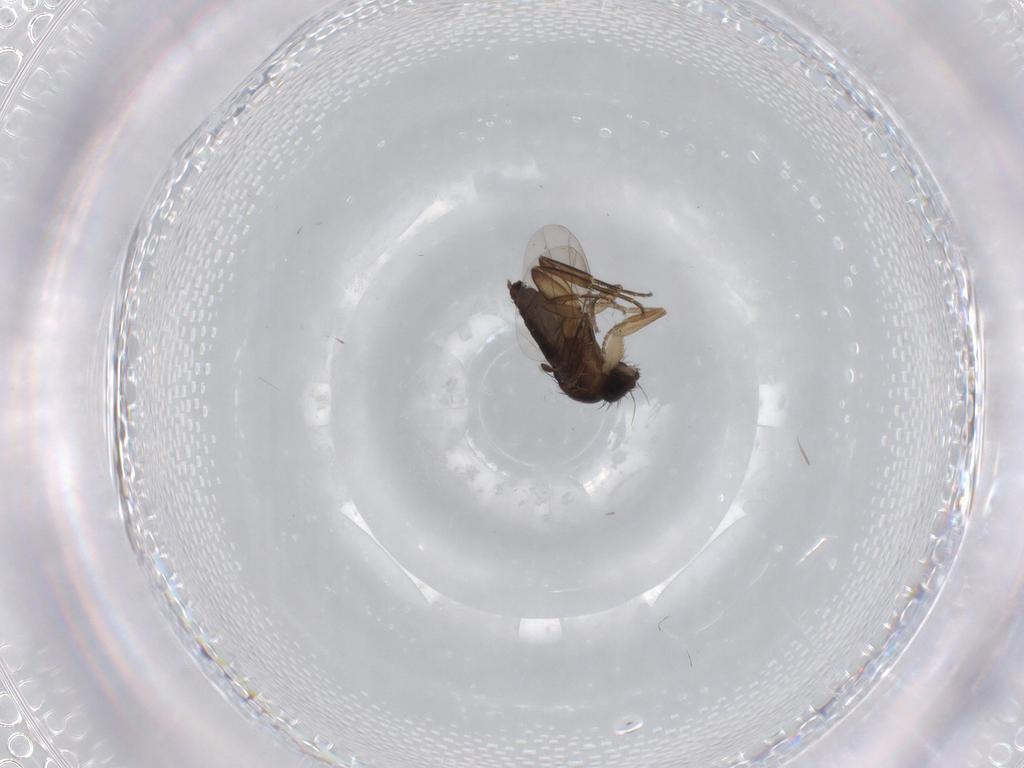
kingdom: Animalia
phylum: Arthropoda
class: Insecta
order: Diptera
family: Phoridae
